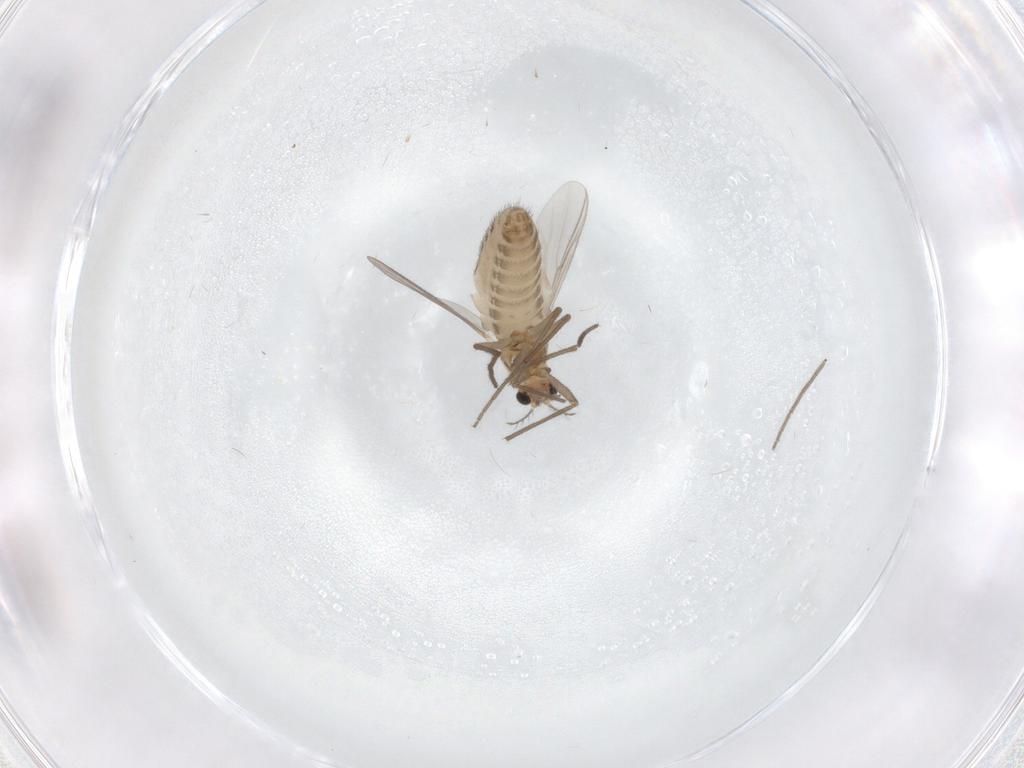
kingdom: Animalia
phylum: Arthropoda
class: Insecta
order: Diptera
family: Chironomidae
